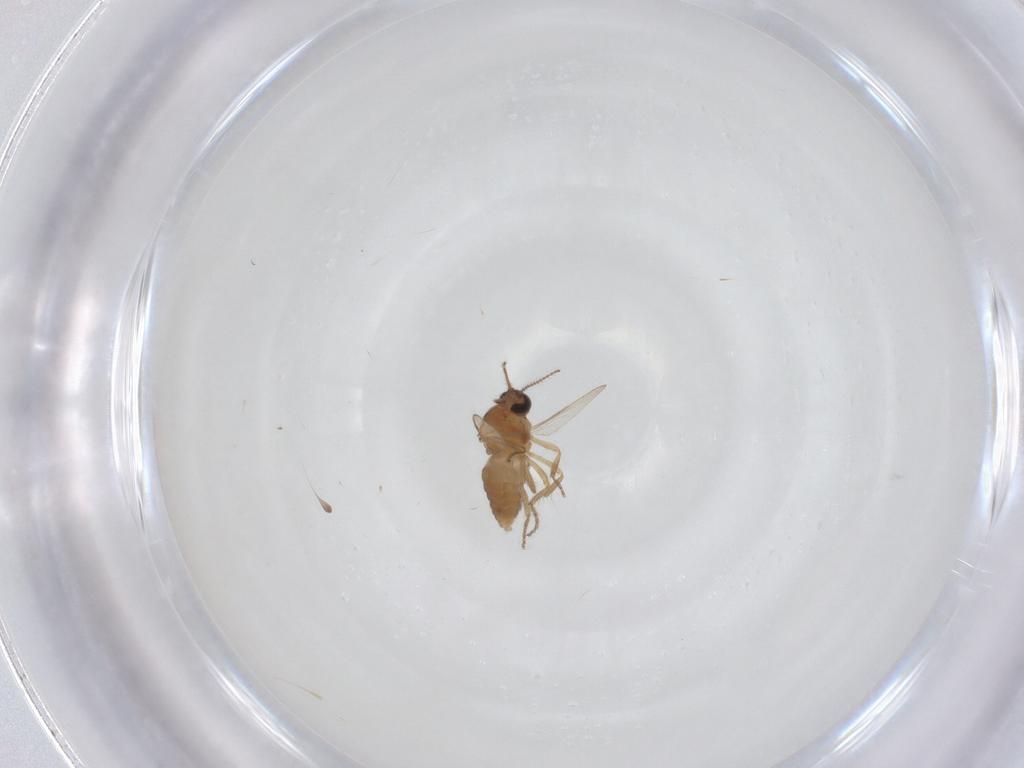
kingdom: Animalia
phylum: Arthropoda
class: Insecta
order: Diptera
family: Ceratopogonidae
